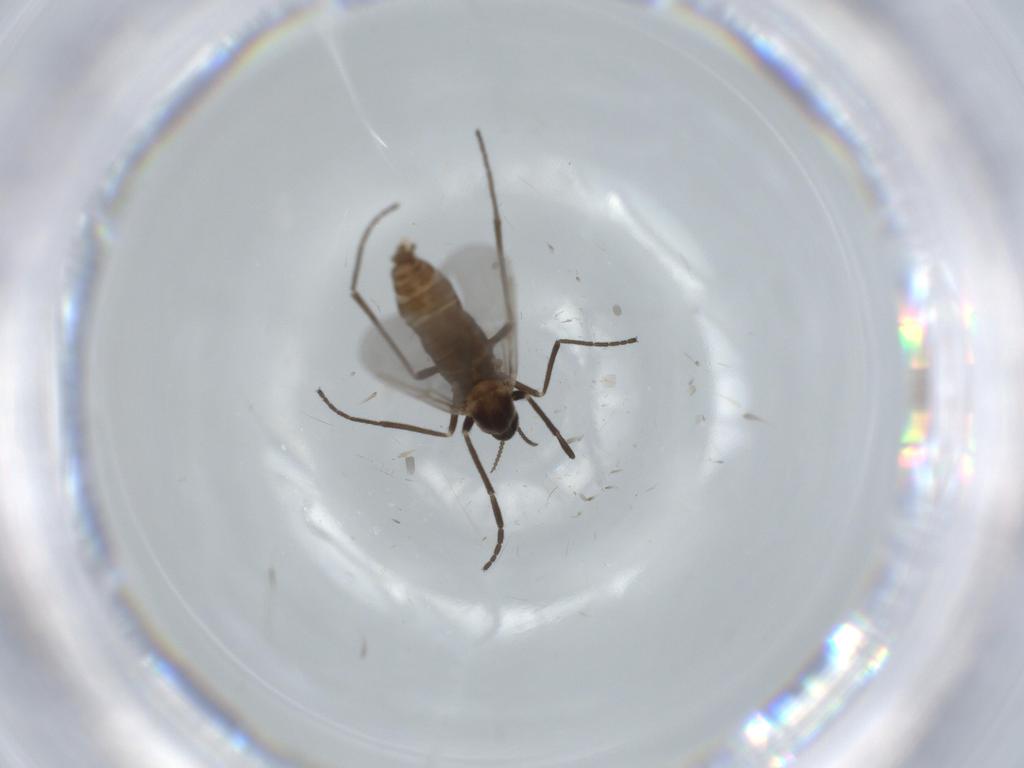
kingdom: Animalia
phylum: Arthropoda
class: Insecta
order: Diptera
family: Cecidomyiidae
